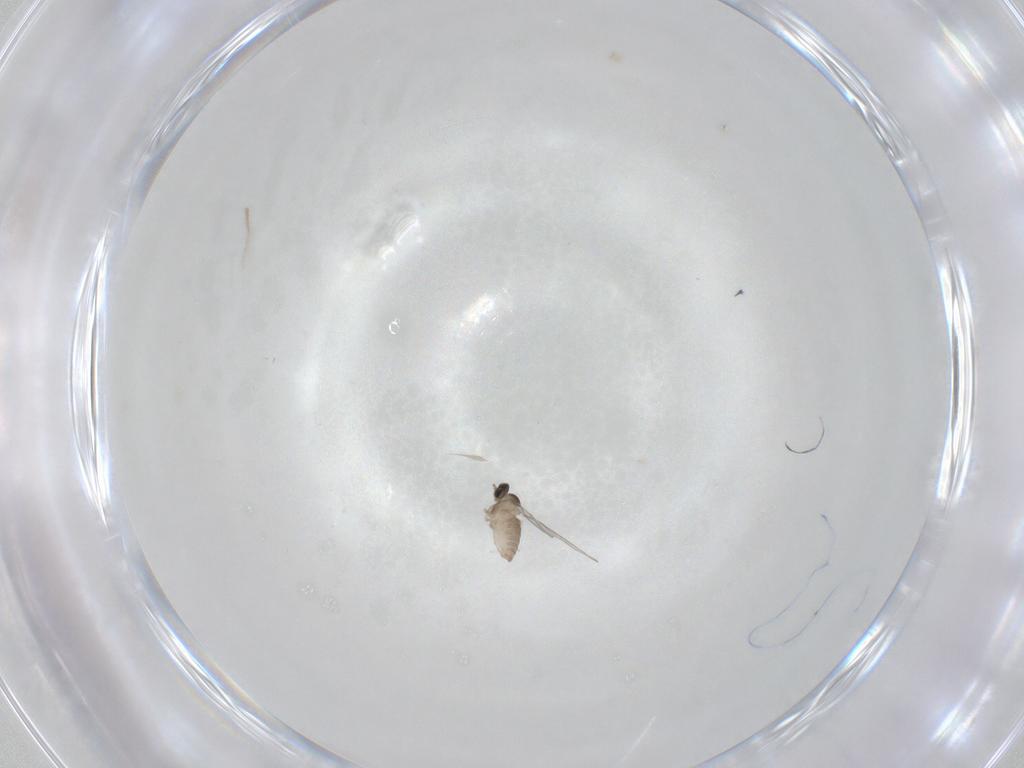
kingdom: Animalia
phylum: Arthropoda
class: Insecta
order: Diptera
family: Cecidomyiidae
